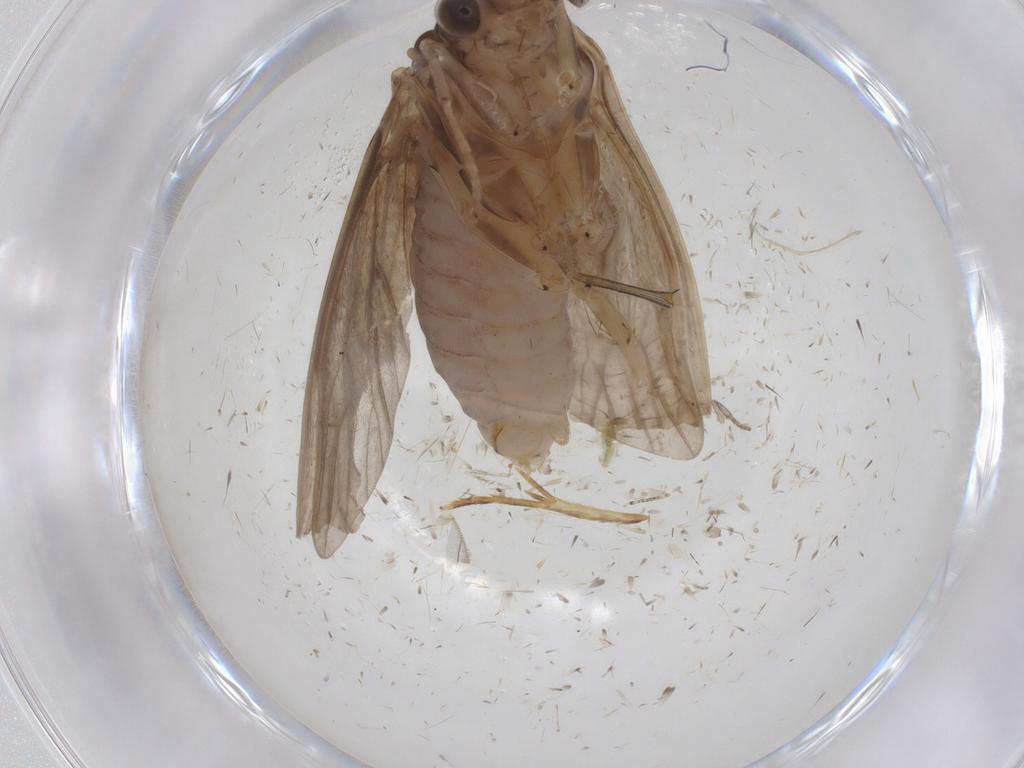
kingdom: Animalia
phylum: Arthropoda
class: Insecta
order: Trichoptera
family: Hydropsychidae
